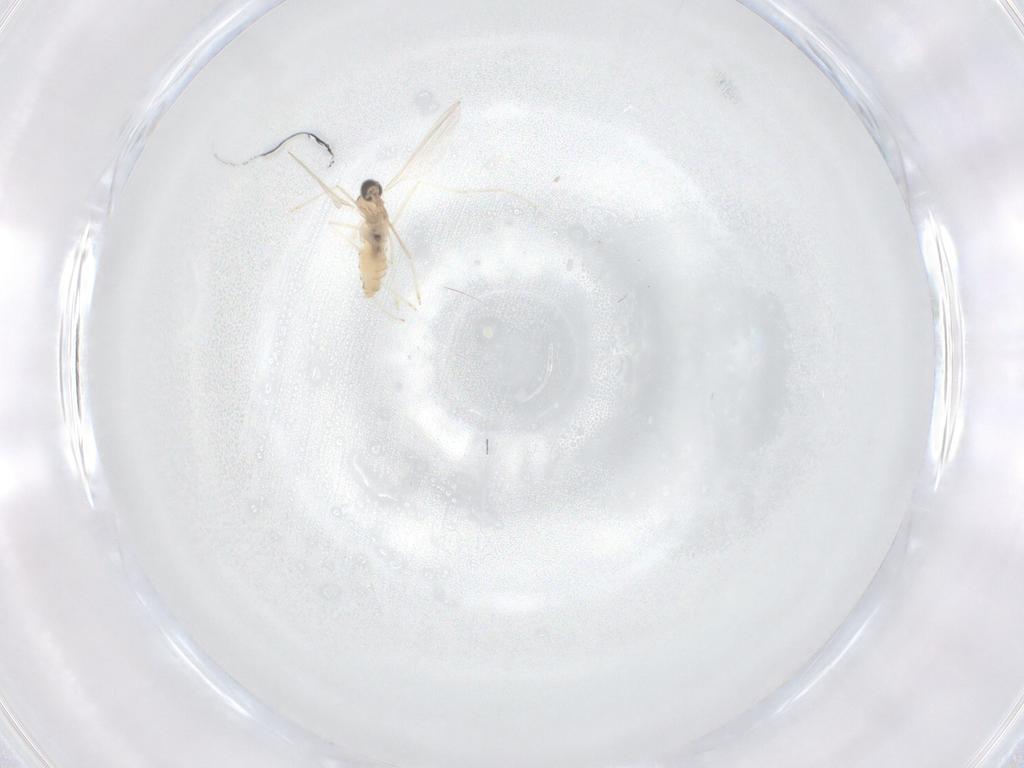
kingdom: Animalia
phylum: Arthropoda
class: Insecta
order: Diptera
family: Cecidomyiidae
